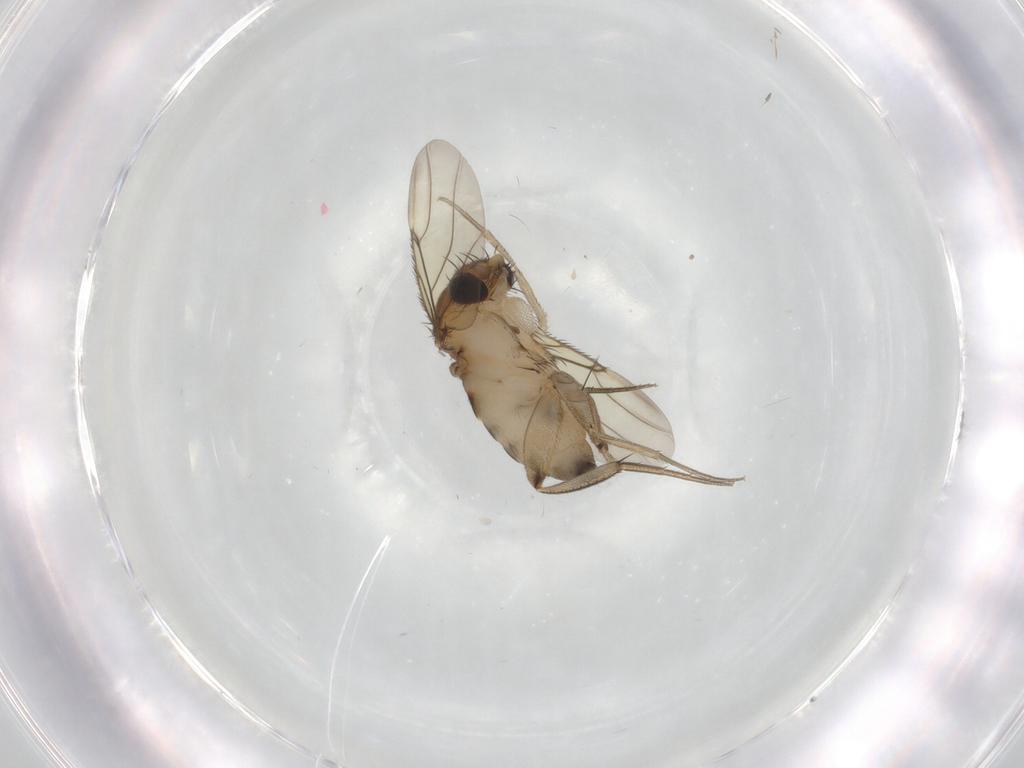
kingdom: Animalia
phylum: Arthropoda
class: Insecta
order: Diptera
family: Phoridae
